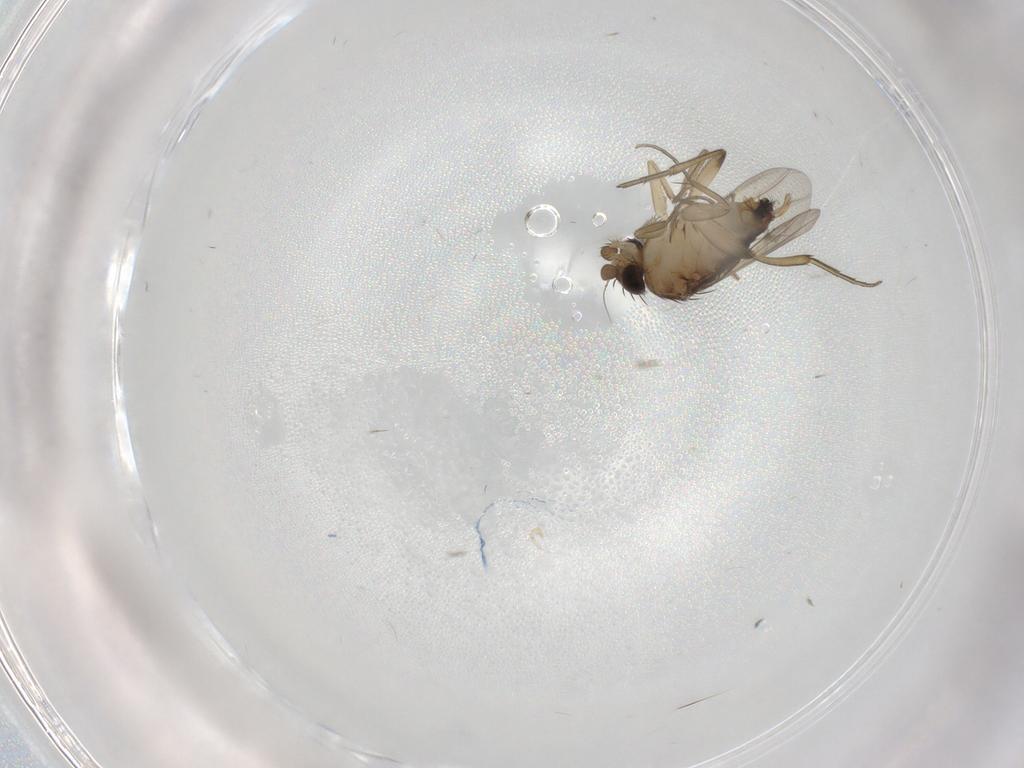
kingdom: Animalia
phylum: Arthropoda
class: Insecta
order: Diptera
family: Phoridae
